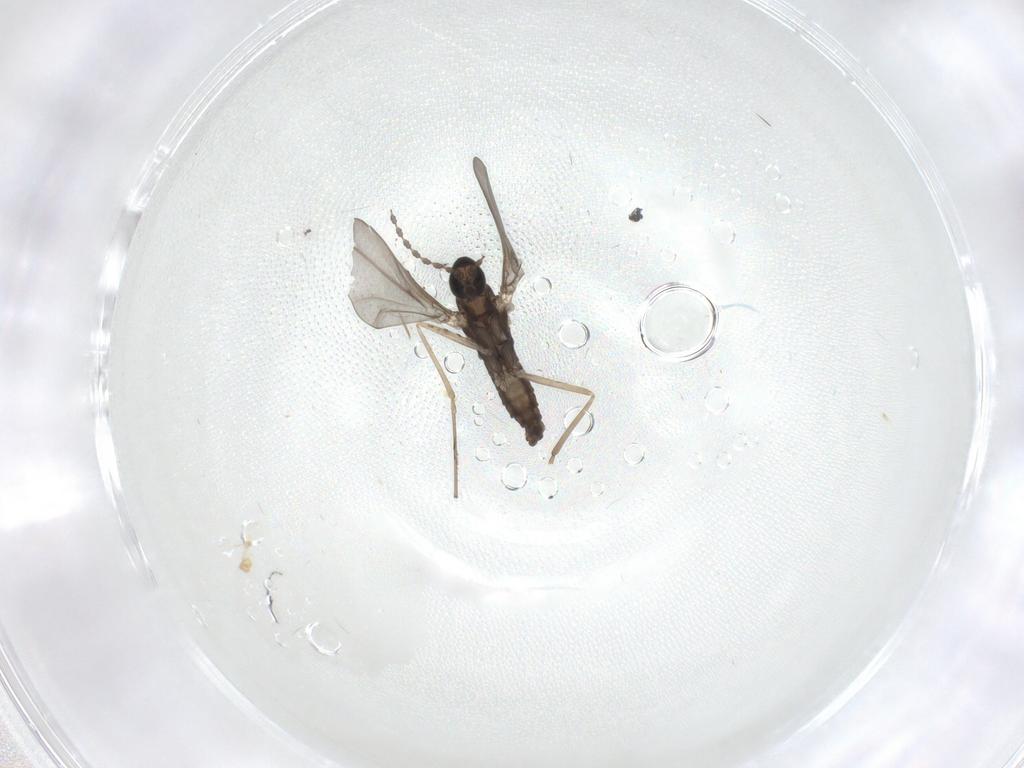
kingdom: Animalia
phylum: Arthropoda
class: Insecta
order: Diptera
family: Cecidomyiidae
